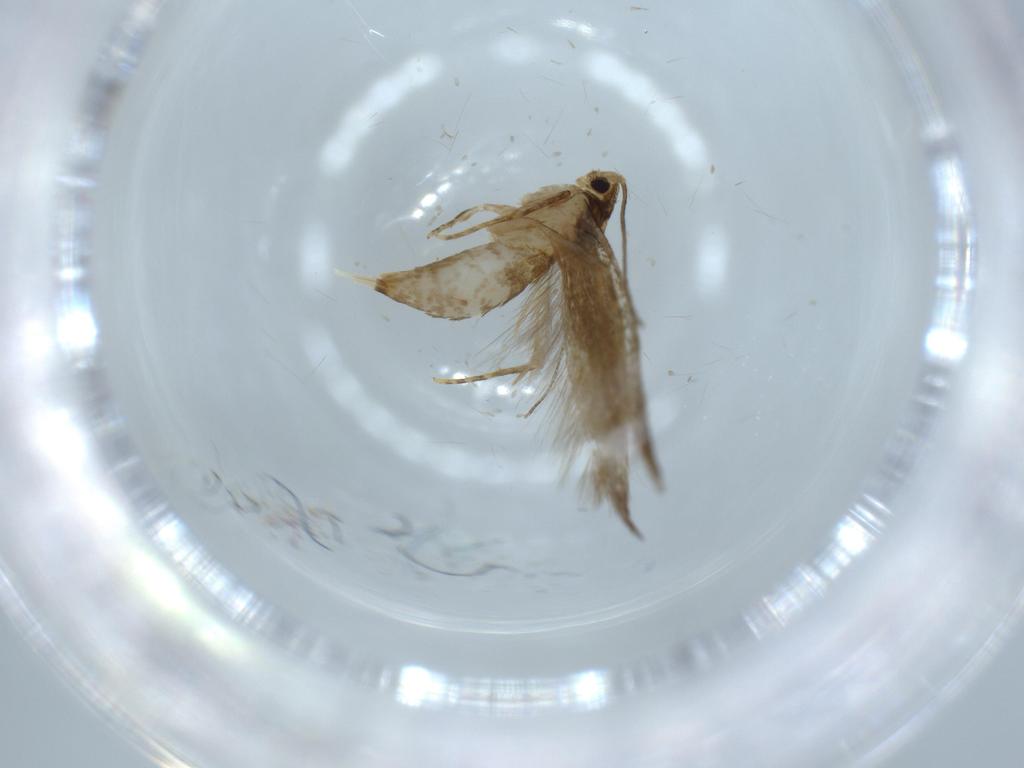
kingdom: Animalia
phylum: Arthropoda
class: Insecta
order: Lepidoptera
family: Tineidae
